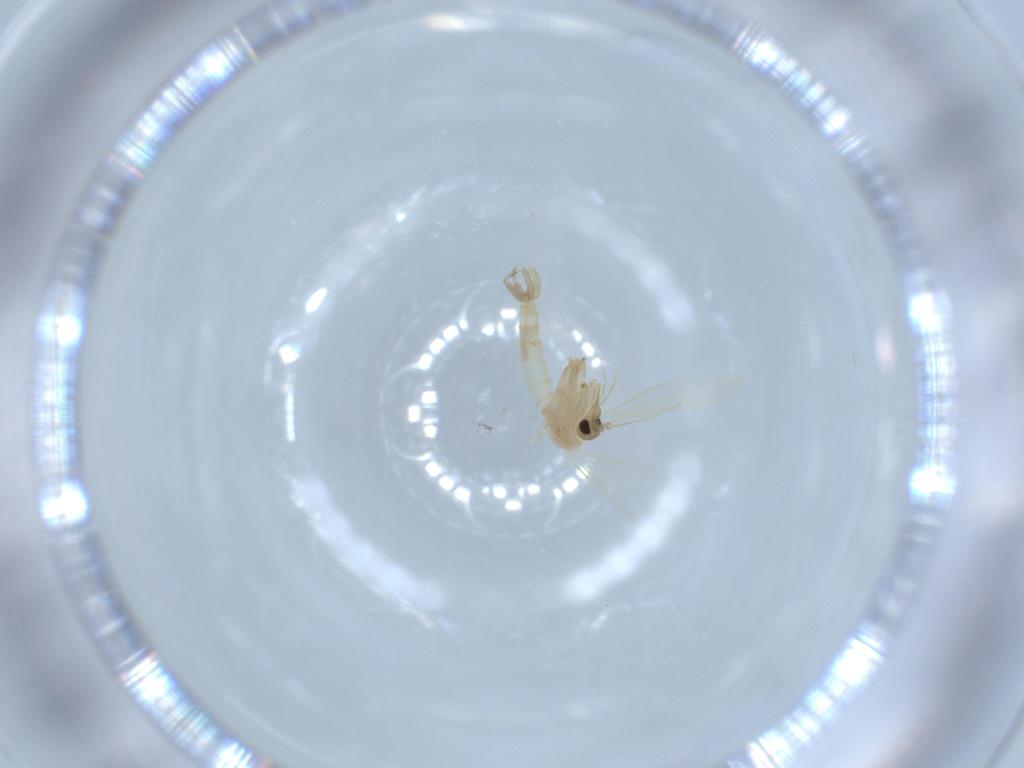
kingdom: Animalia
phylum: Arthropoda
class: Insecta
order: Diptera
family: Psychodidae
